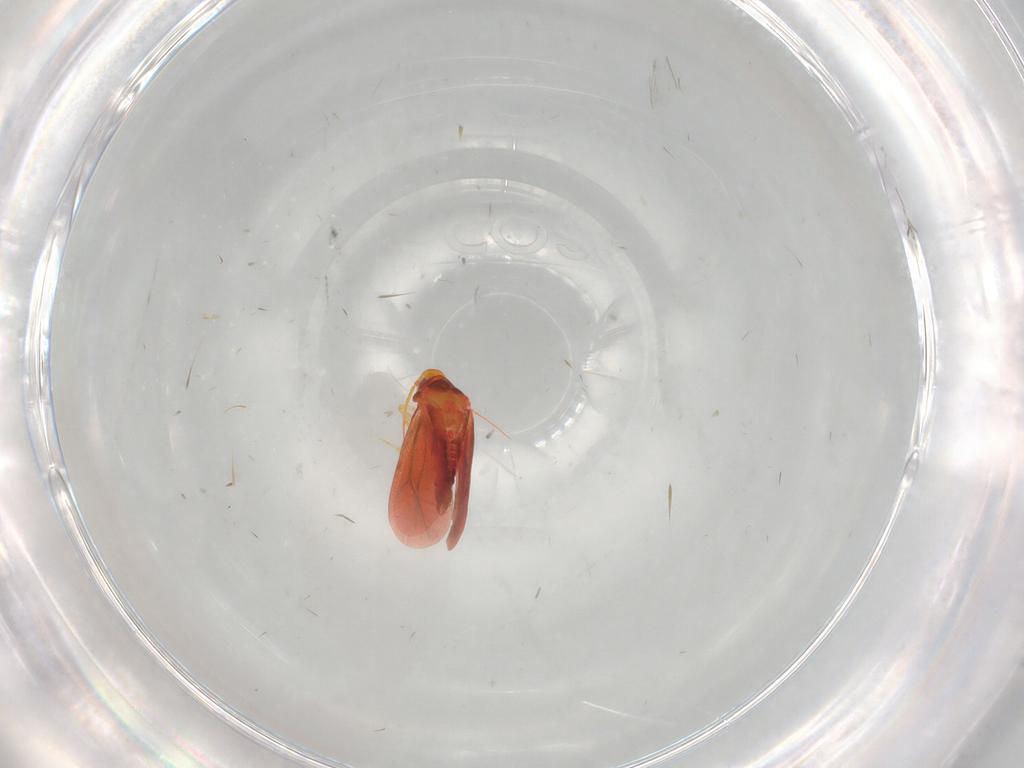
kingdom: Animalia
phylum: Arthropoda
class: Insecta
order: Hemiptera
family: Aleyrodidae
